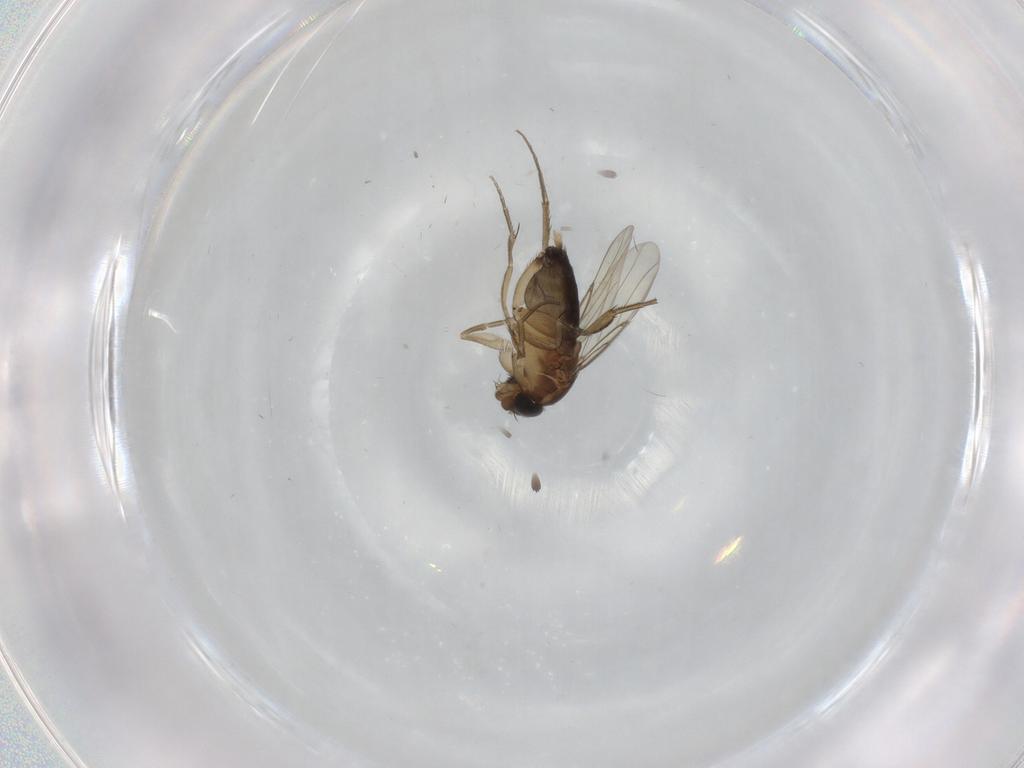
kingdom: Animalia
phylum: Arthropoda
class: Insecta
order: Diptera
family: Phoridae
